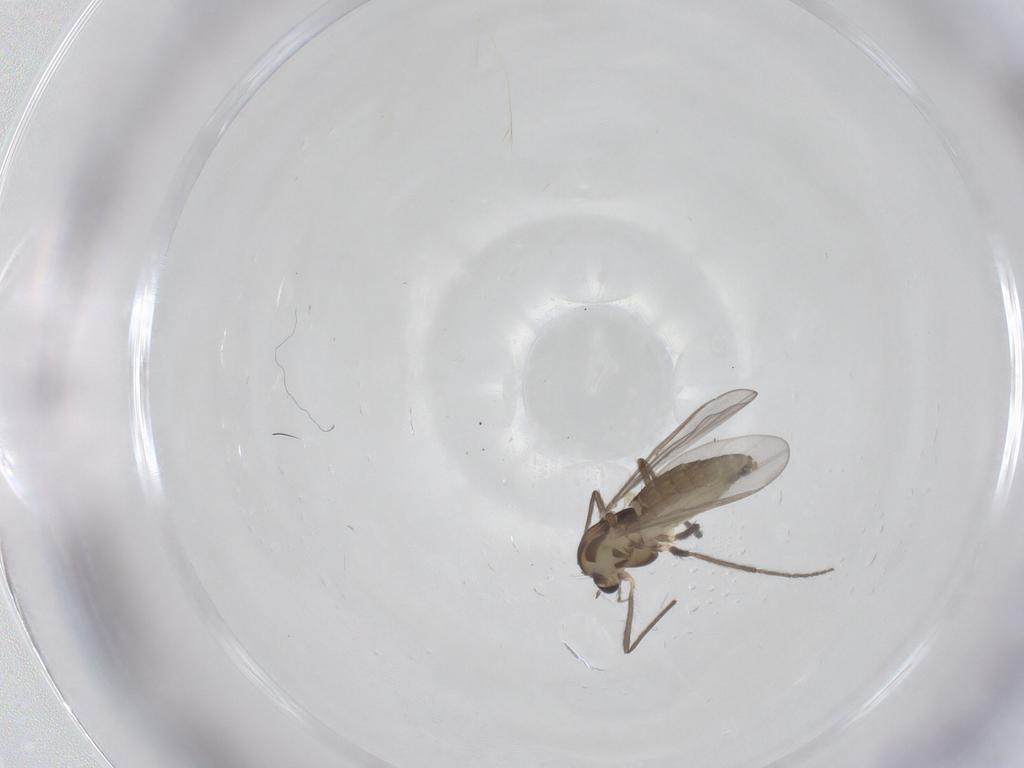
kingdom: Animalia
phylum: Arthropoda
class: Insecta
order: Diptera
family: Chironomidae
